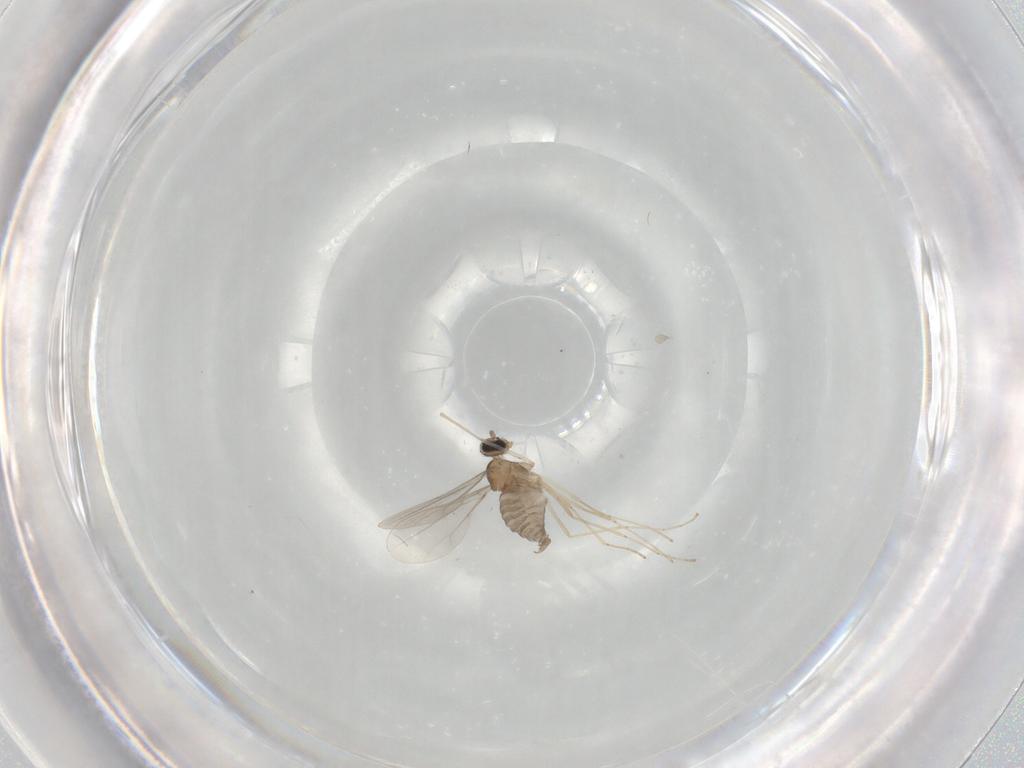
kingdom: Animalia
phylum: Arthropoda
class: Insecta
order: Diptera
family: Cecidomyiidae
